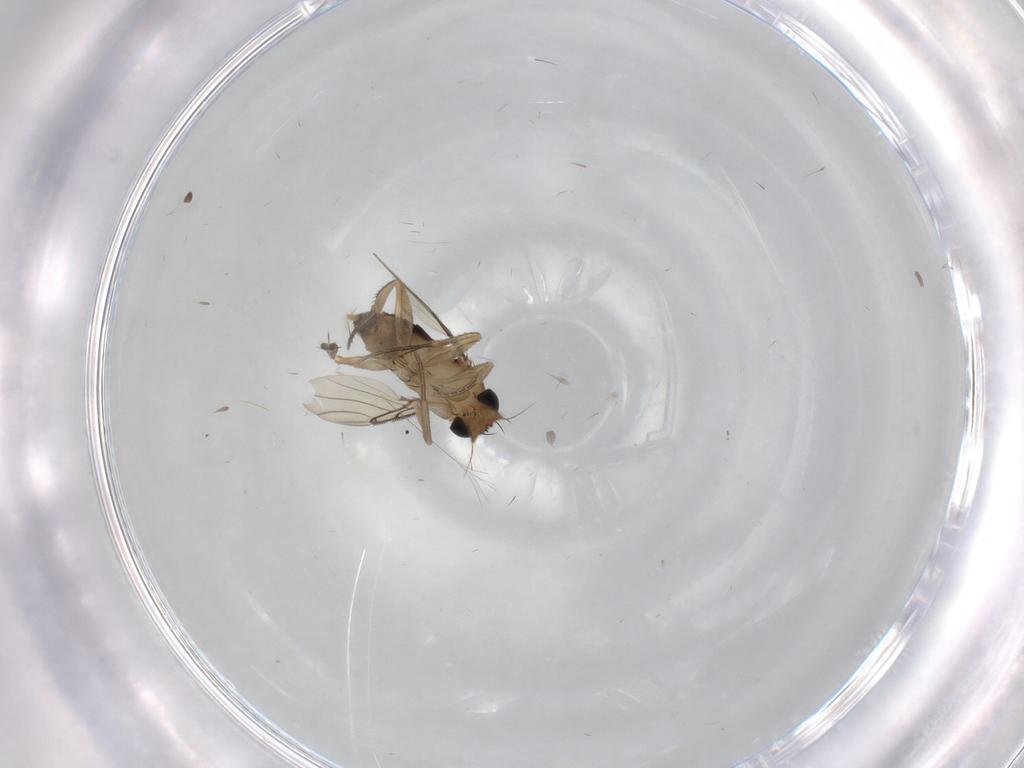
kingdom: Animalia
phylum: Arthropoda
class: Insecta
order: Diptera
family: Phoridae
